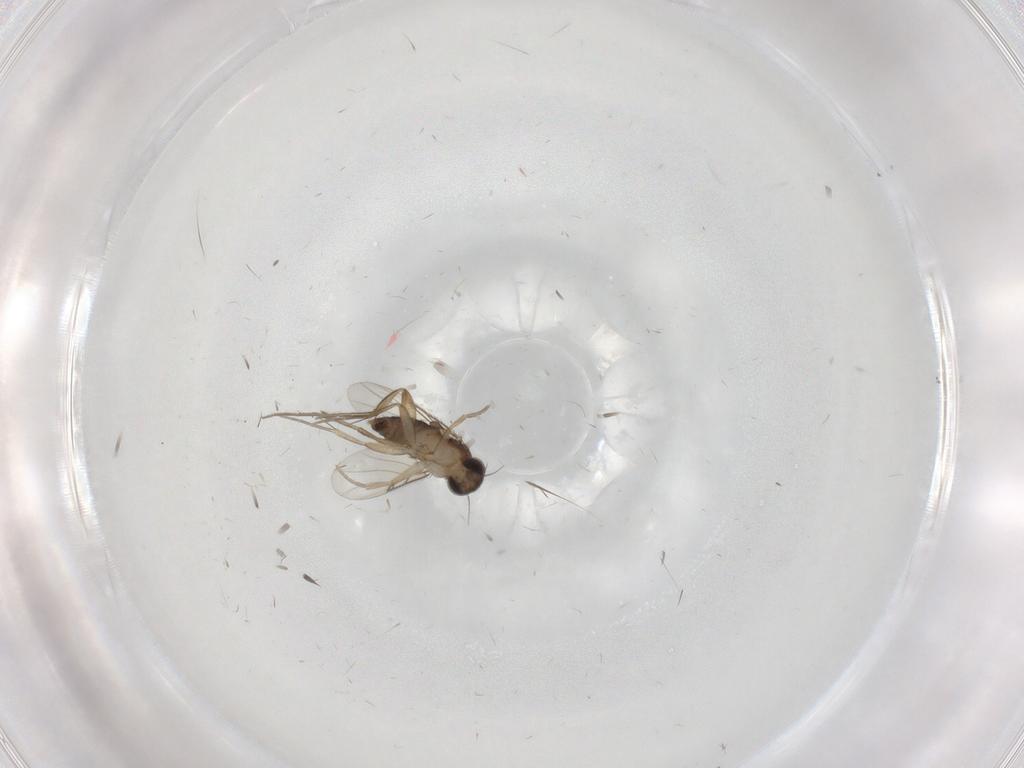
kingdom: Animalia
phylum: Arthropoda
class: Insecta
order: Diptera
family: Phoridae
